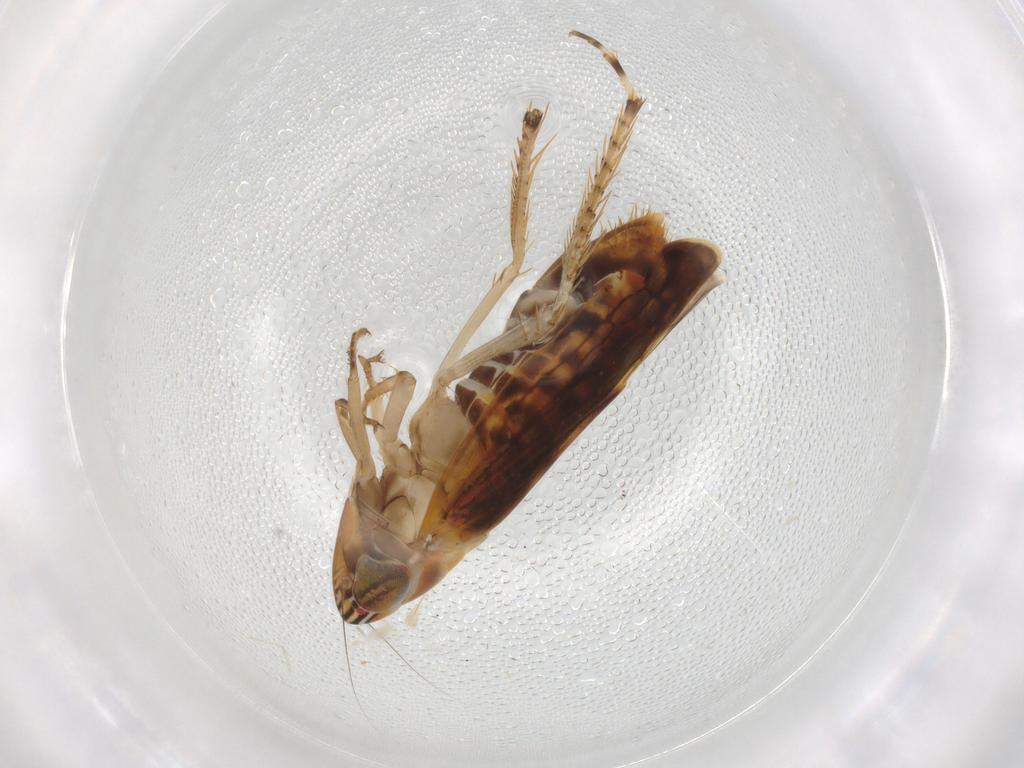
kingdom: Animalia
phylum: Arthropoda
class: Insecta
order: Hemiptera
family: Cicadellidae
